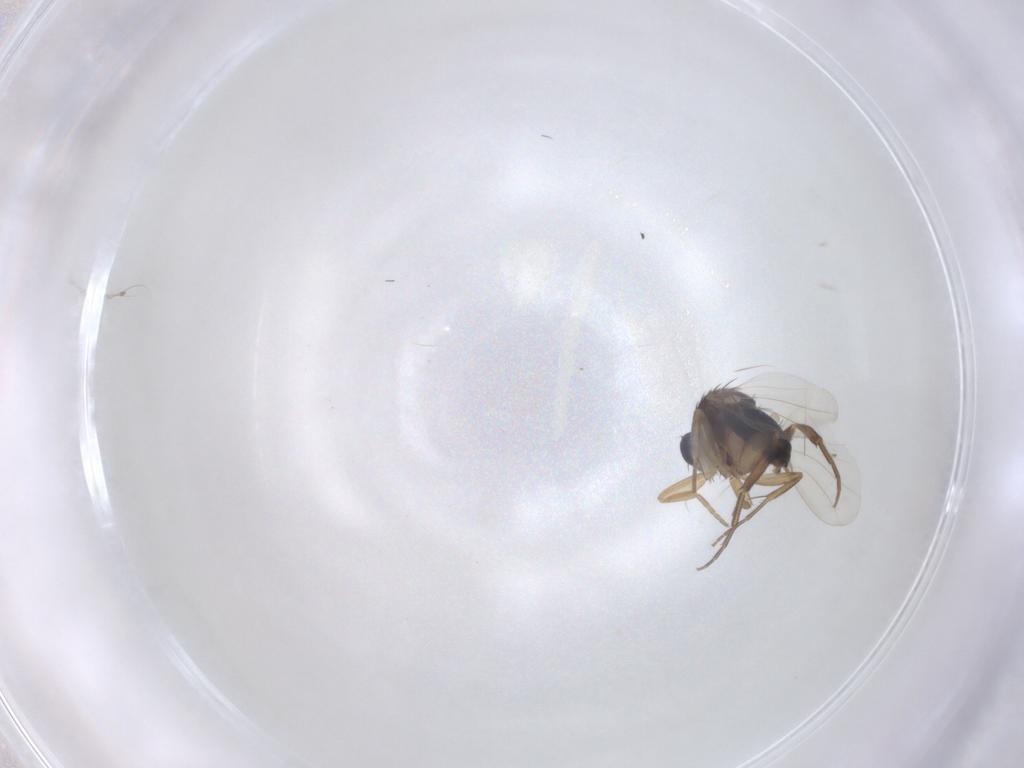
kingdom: Animalia
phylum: Arthropoda
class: Insecta
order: Diptera
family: Phoridae
